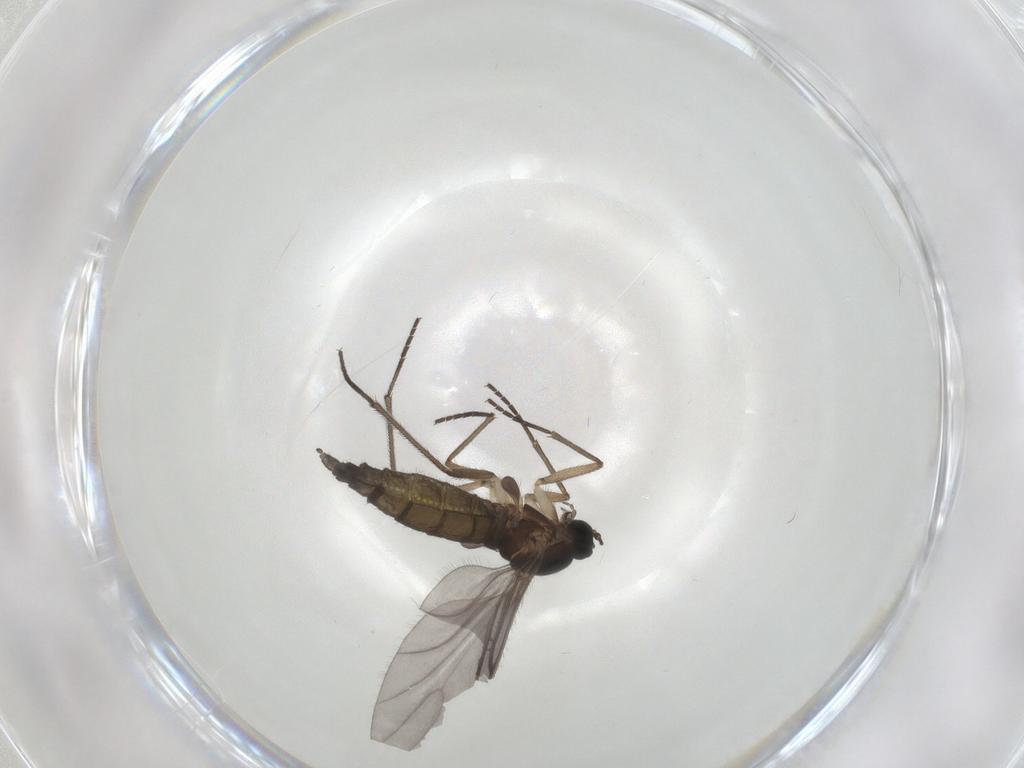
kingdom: Animalia
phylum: Arthropoda
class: Insecta
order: Diptera
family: Sciaridae
